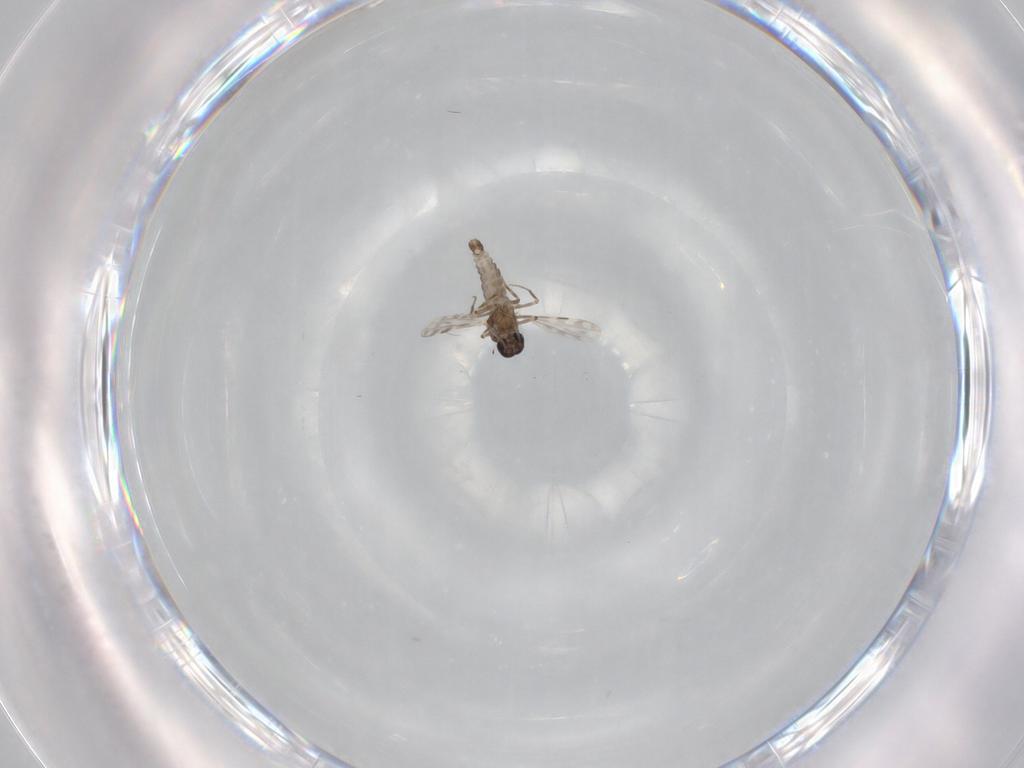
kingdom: Animalia
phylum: Arthropoda
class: Insecta
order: Diptera
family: Ceratopogonidae
